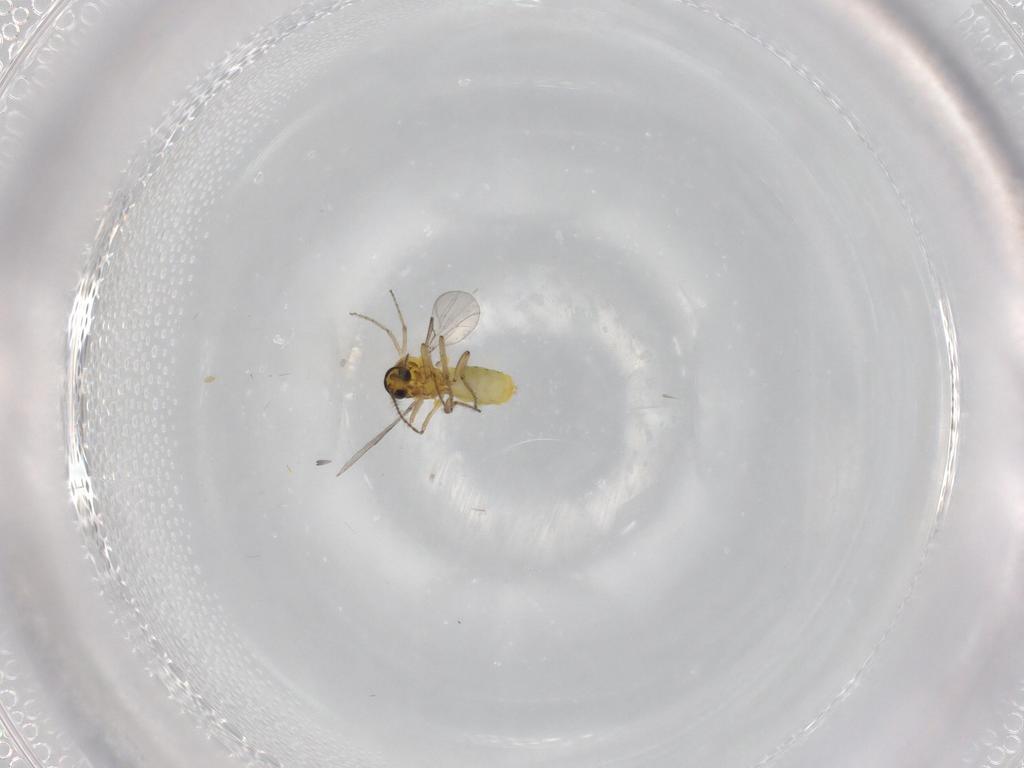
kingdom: Animalia
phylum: Arthropoda
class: Insecta
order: Diptera
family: Ceratopogonidae
